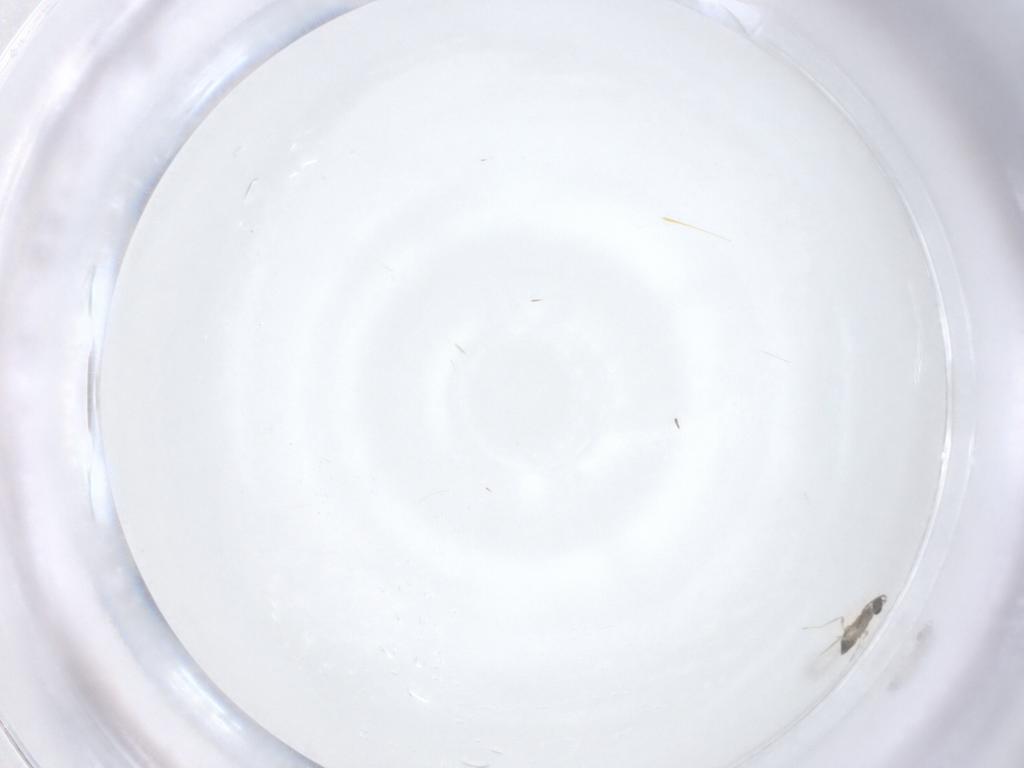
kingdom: Animalia
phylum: Arthropoda
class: Insecta
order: Hymenoptera
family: Mymaridae
